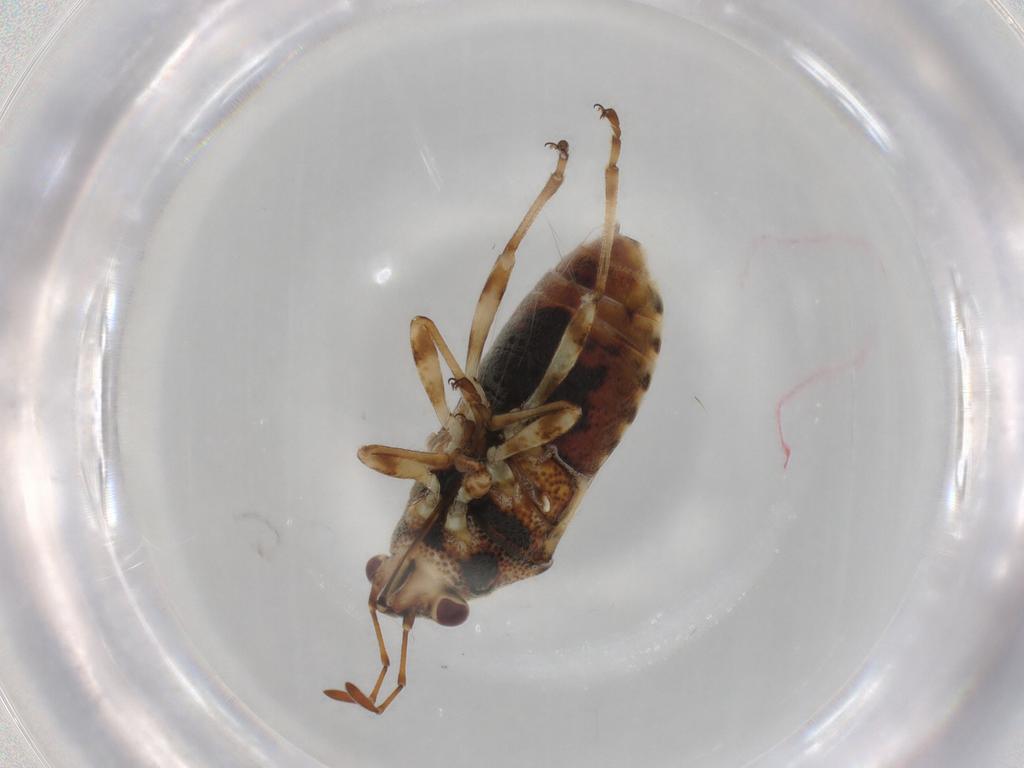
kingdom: Animalia
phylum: Arthropoda
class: Insecta
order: Hemiptera
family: Lygaeidae
